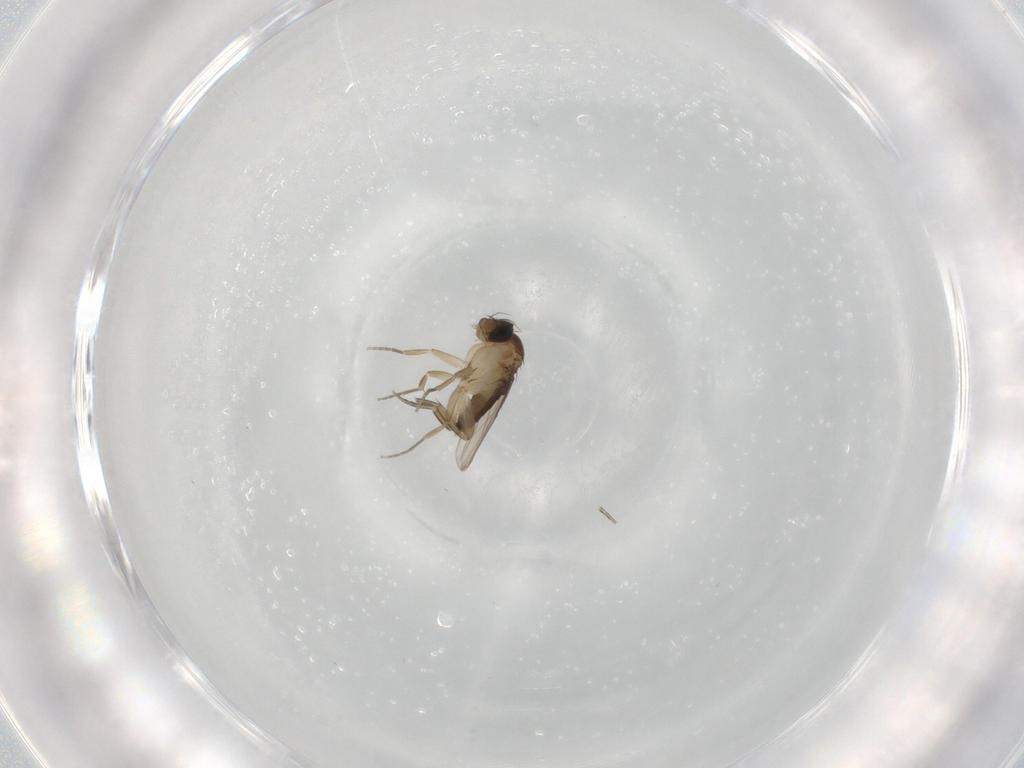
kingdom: Animalia
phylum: Arthropoda
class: Insecta
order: Diptera
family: Phoridae
